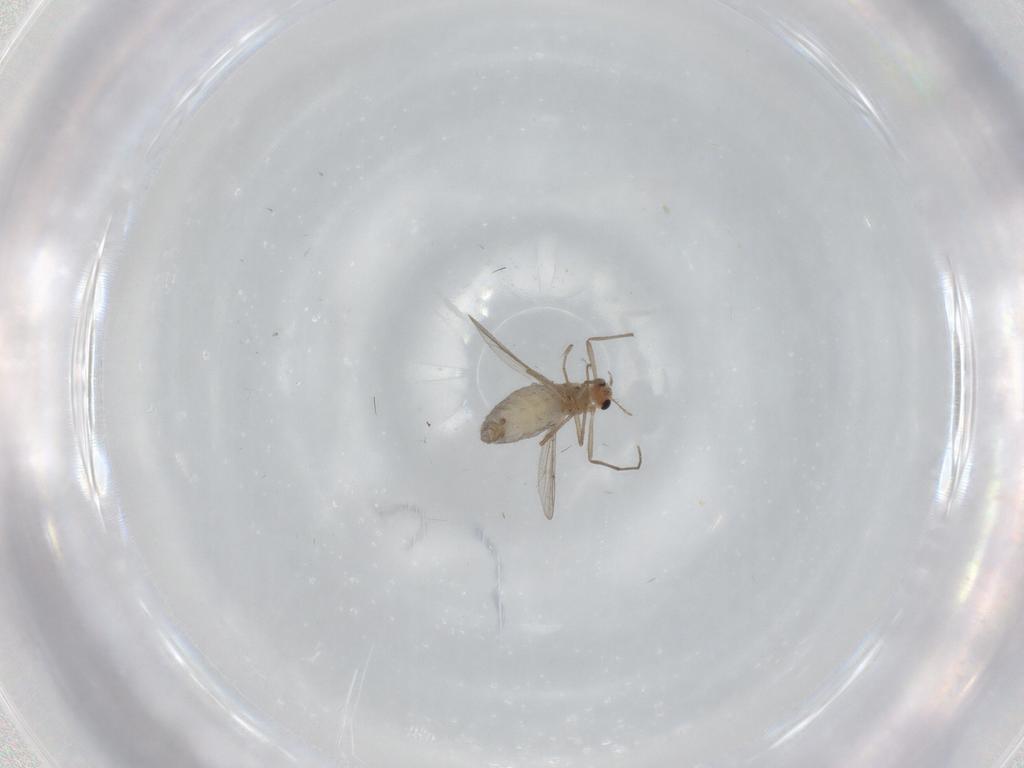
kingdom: Animalia
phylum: Arthropoda
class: Insecta
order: Diptera
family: Chironomidae
